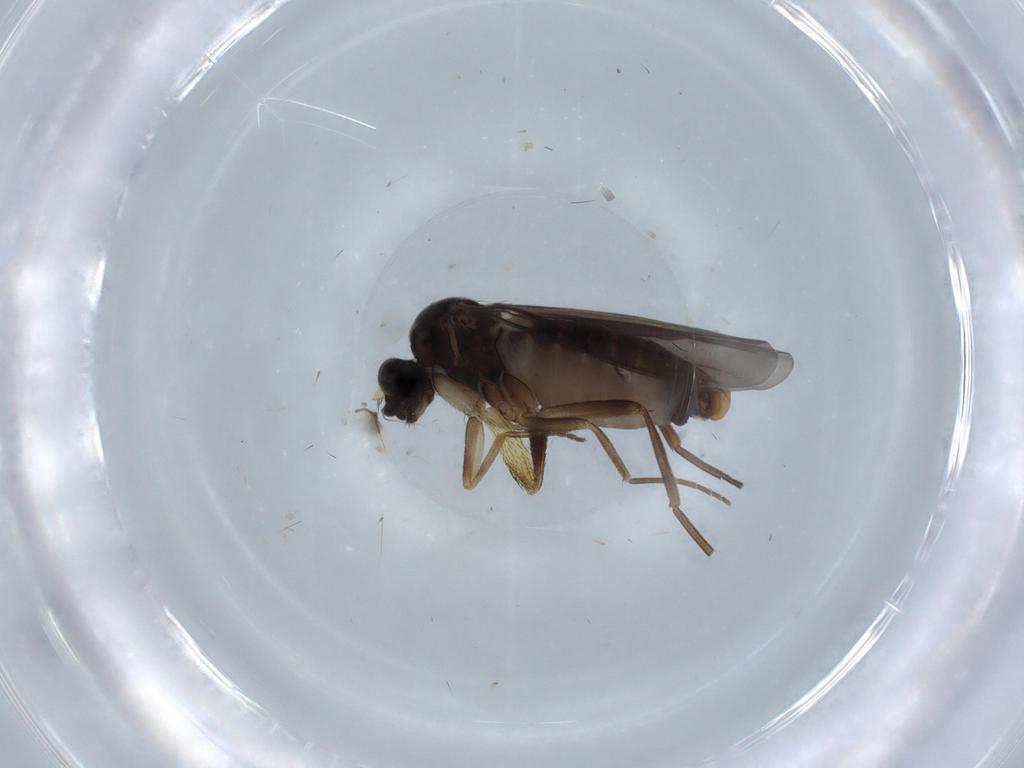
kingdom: Animalia
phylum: Arthropoda
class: Insecta
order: Diptera
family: Phoridae
